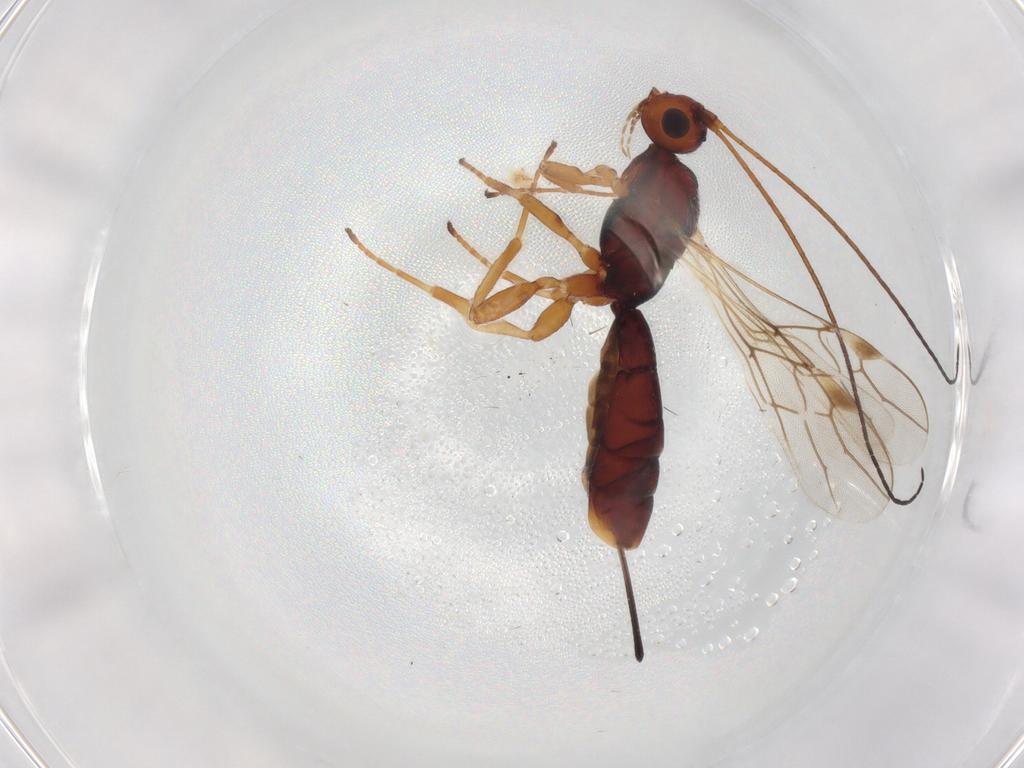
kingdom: Animalia
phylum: Arthropoda
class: Insecta
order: Hymenoptera
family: Braconidae
